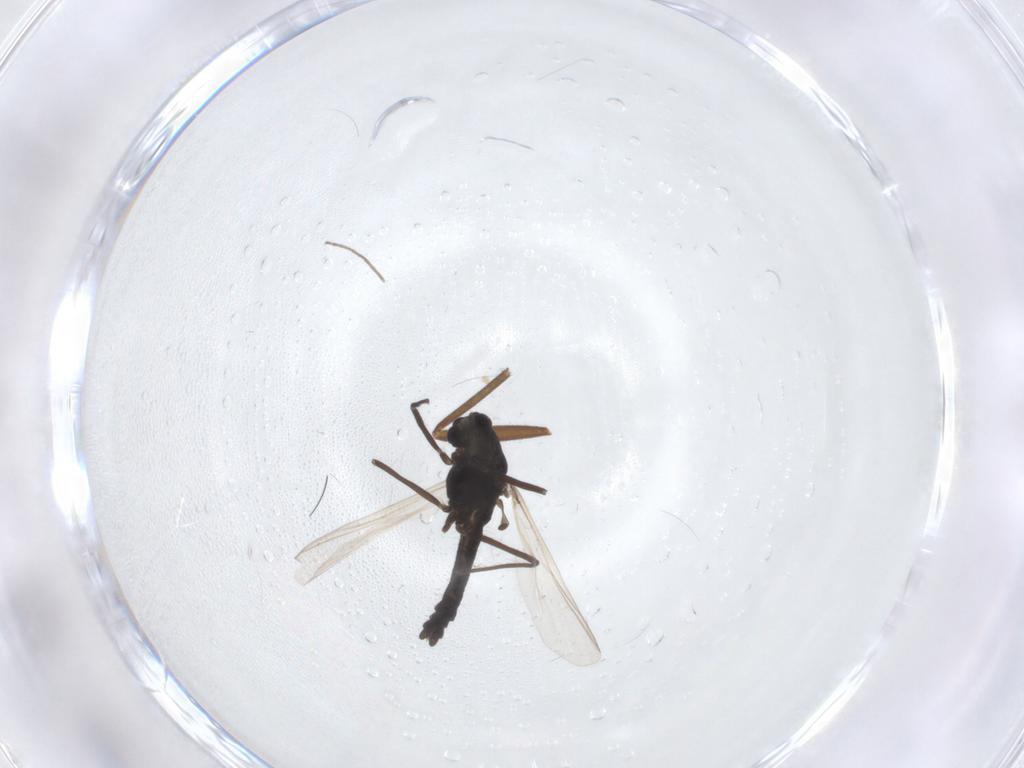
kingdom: Animalia
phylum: Arthropoda
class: Insecta
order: Diptera
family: Sciaridae
